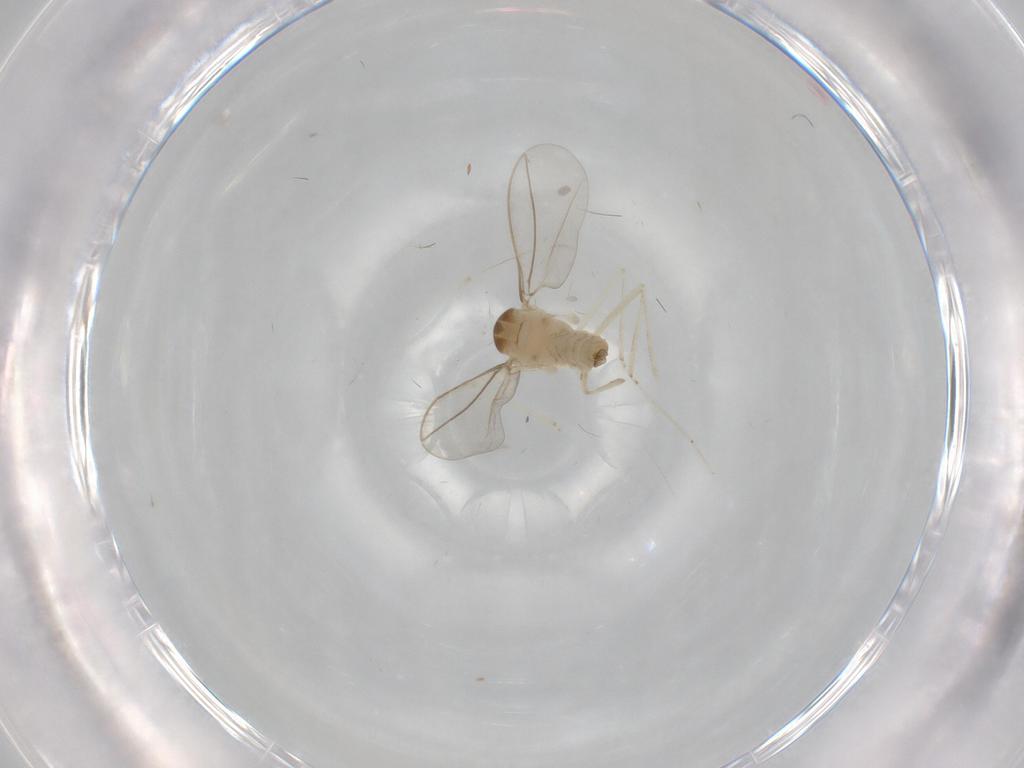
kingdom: Animalia
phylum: Arthropoda
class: Insecta
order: Diptera
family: Cecidomyiidae
